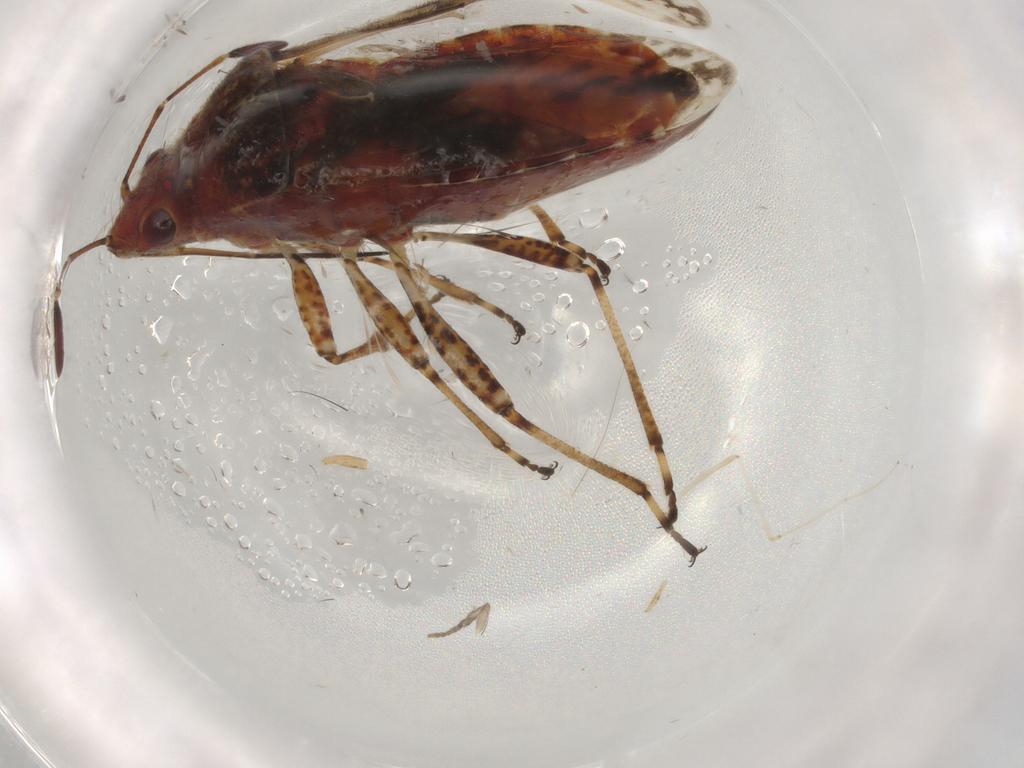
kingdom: Animalia
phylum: Arthropoda
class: Insecta
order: Hemiptera
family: Lygaeidae
